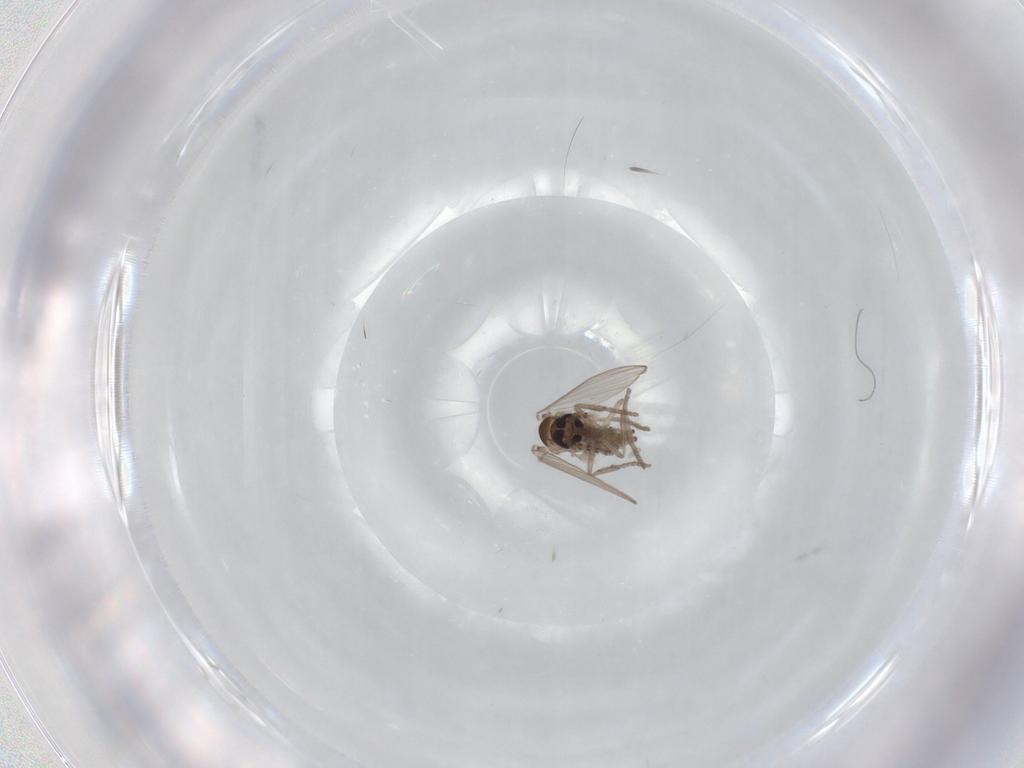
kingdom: Animalia
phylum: Arthropoda
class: Insecta
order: Diptera
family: Psychodidae
